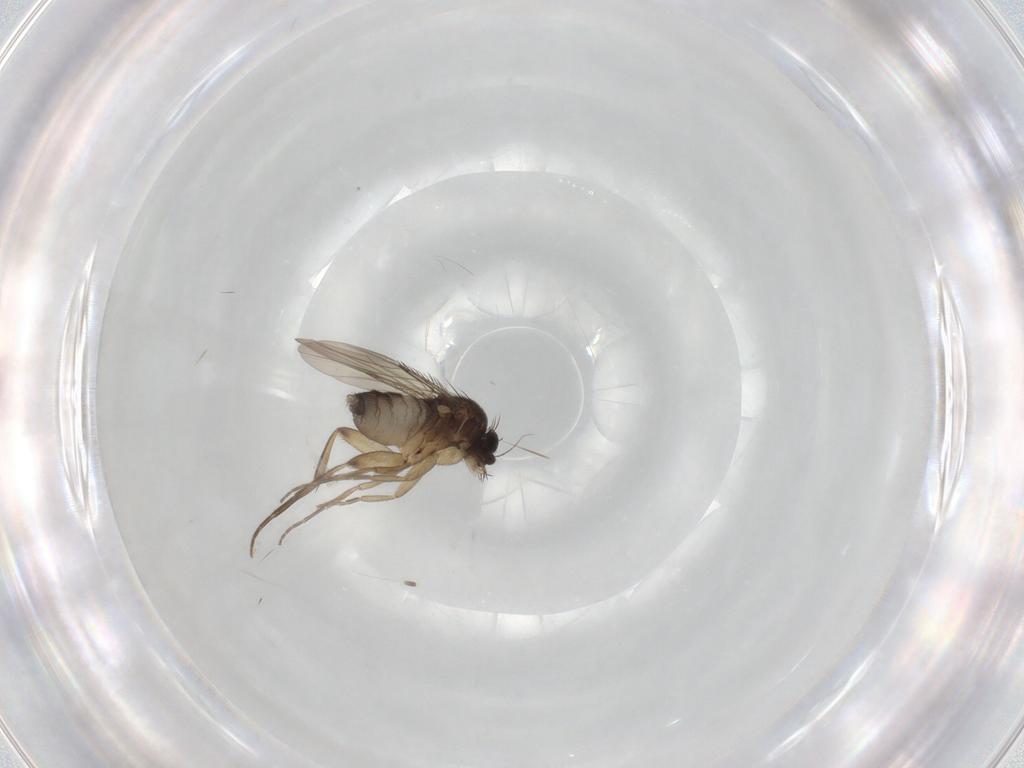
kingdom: Animalia
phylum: Arthropoda
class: Insecta
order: Diptera
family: Phoridae
